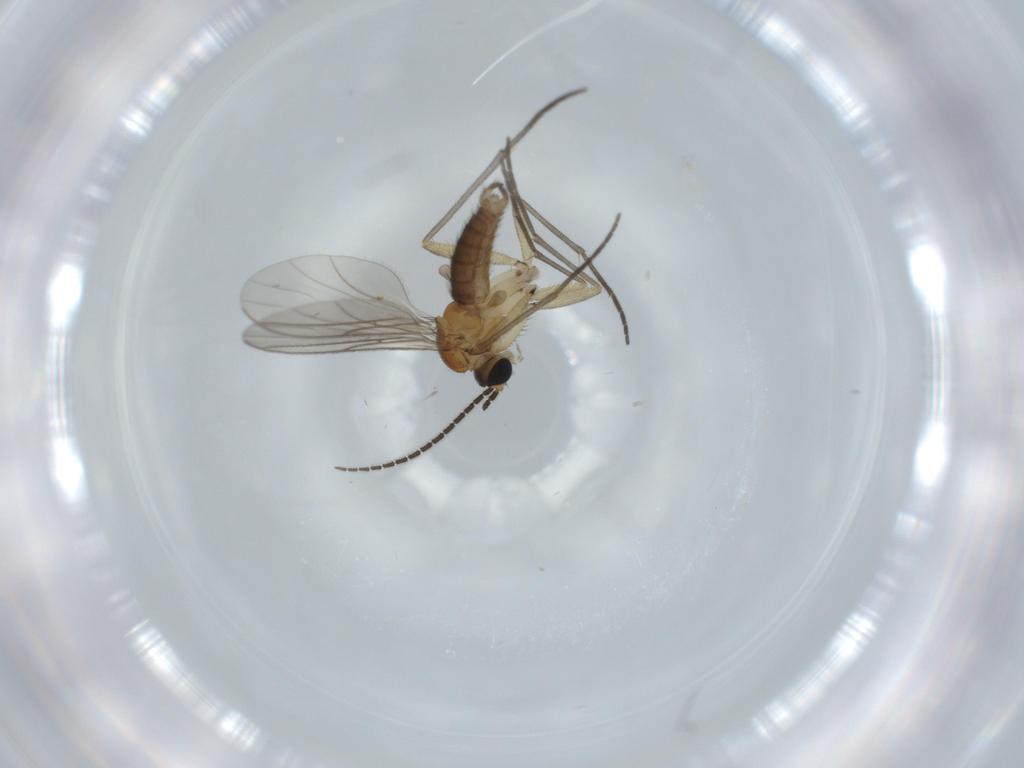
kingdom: Animalia
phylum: Arthropoda
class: Insecta
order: Diptera
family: Sciaridae
